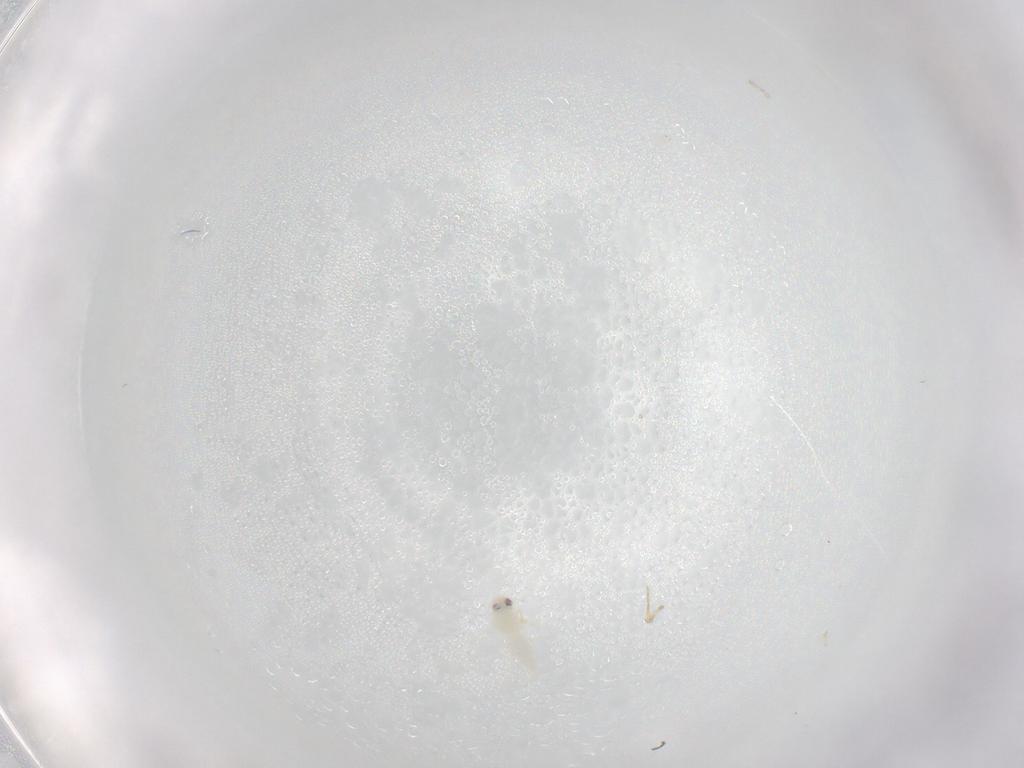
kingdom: Animalia
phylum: Arthropoda
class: Insecta
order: Hemiptera
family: Aleyrodidae
